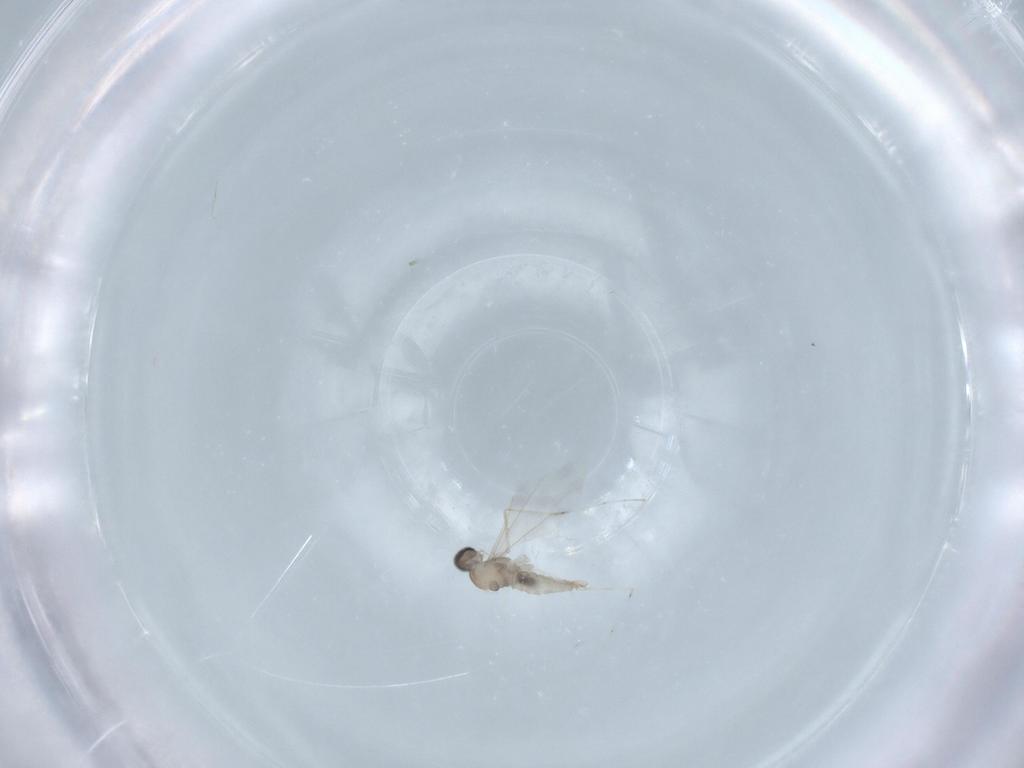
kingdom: Animalia
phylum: Arthropoda
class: Insecta
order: Diptera
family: Cecidomyiidae
